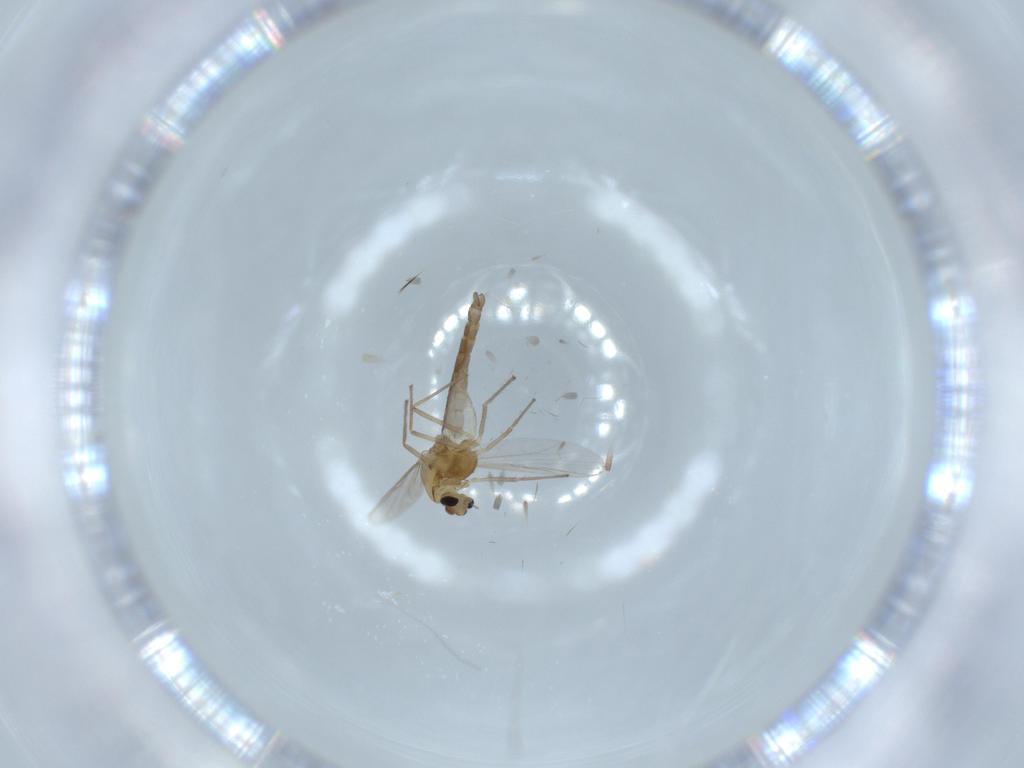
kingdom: Animalia
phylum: Arthropoda
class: Insecta
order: Diptera
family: Chironomidae
